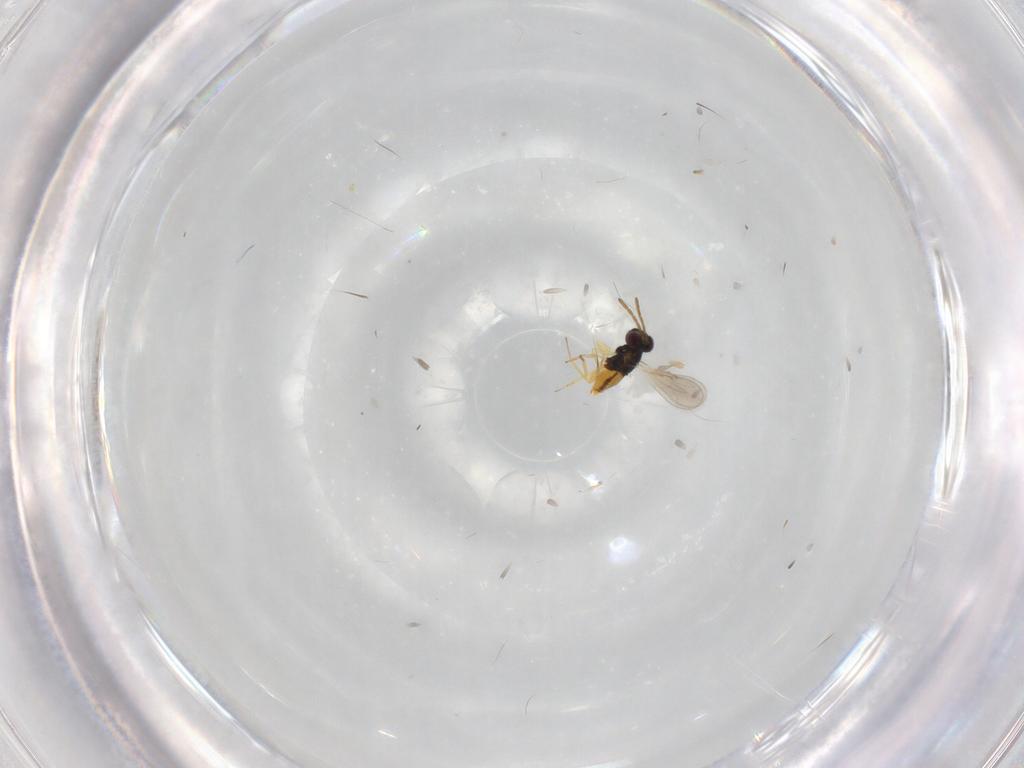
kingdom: Animalia
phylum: Arthropoda
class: Insecta
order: Hymenoptera
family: Aphelinidae
